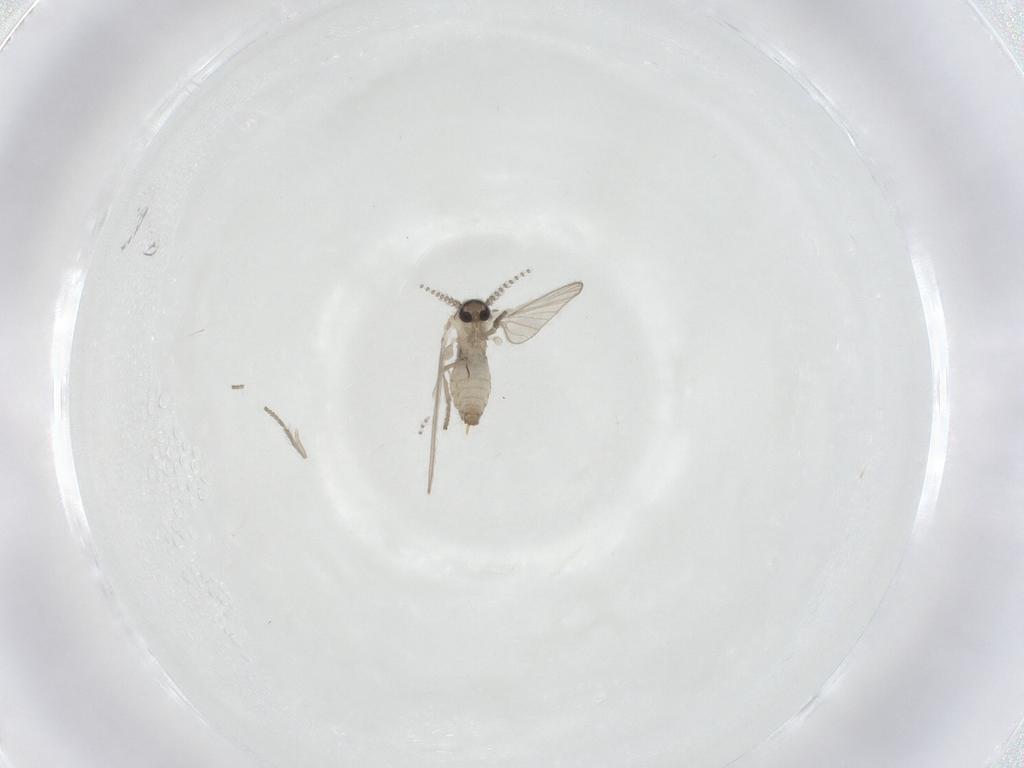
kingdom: Animalia
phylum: Arthropoda
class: Insecta
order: Diptera
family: Psychodidae
